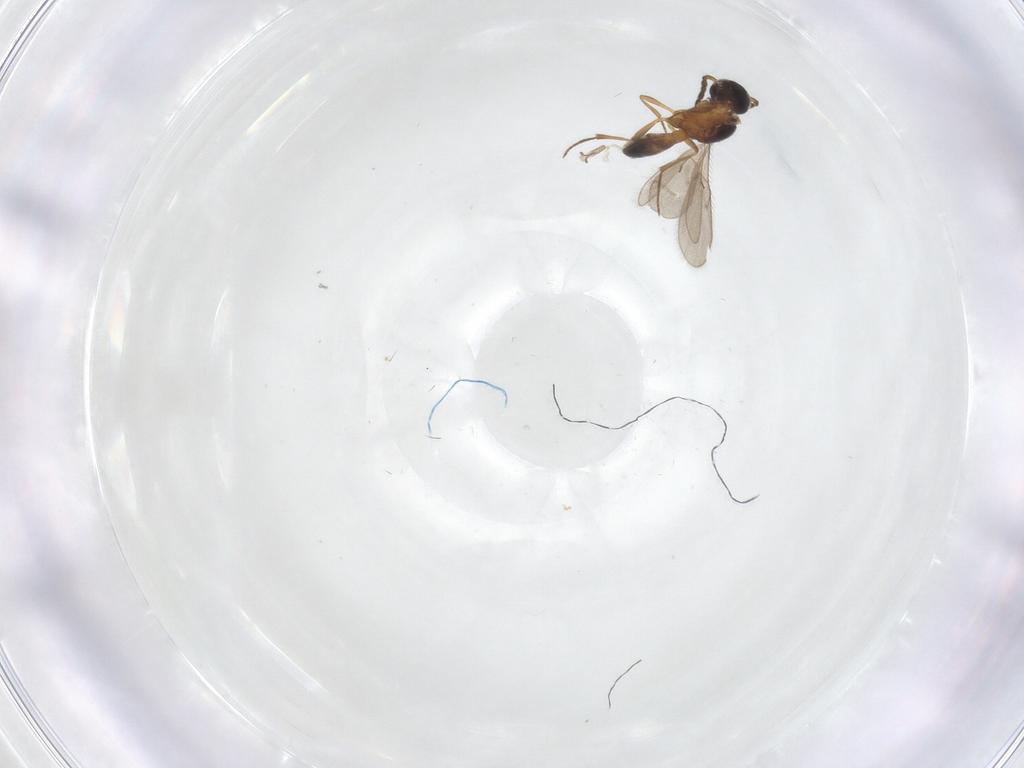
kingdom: Animalia
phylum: Arthropoda
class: Insecta
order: Hymenoptera
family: Scelionidae
